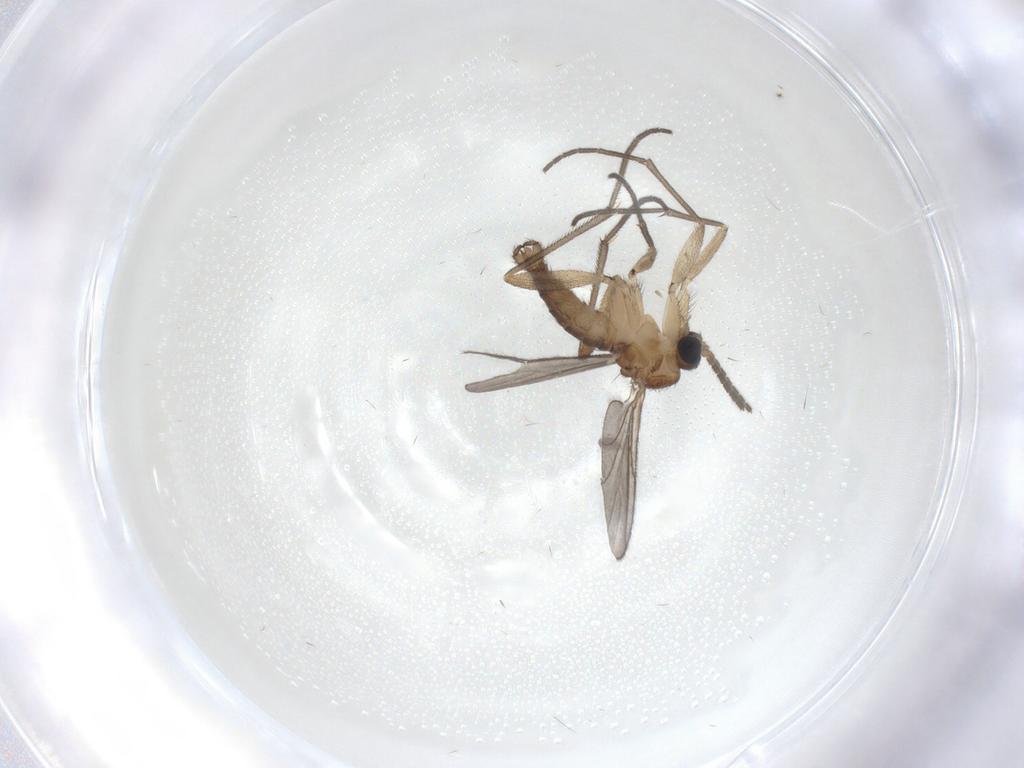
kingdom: Animalia
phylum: Arthropoda
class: Insecta
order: Diptera
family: Sciaridae
